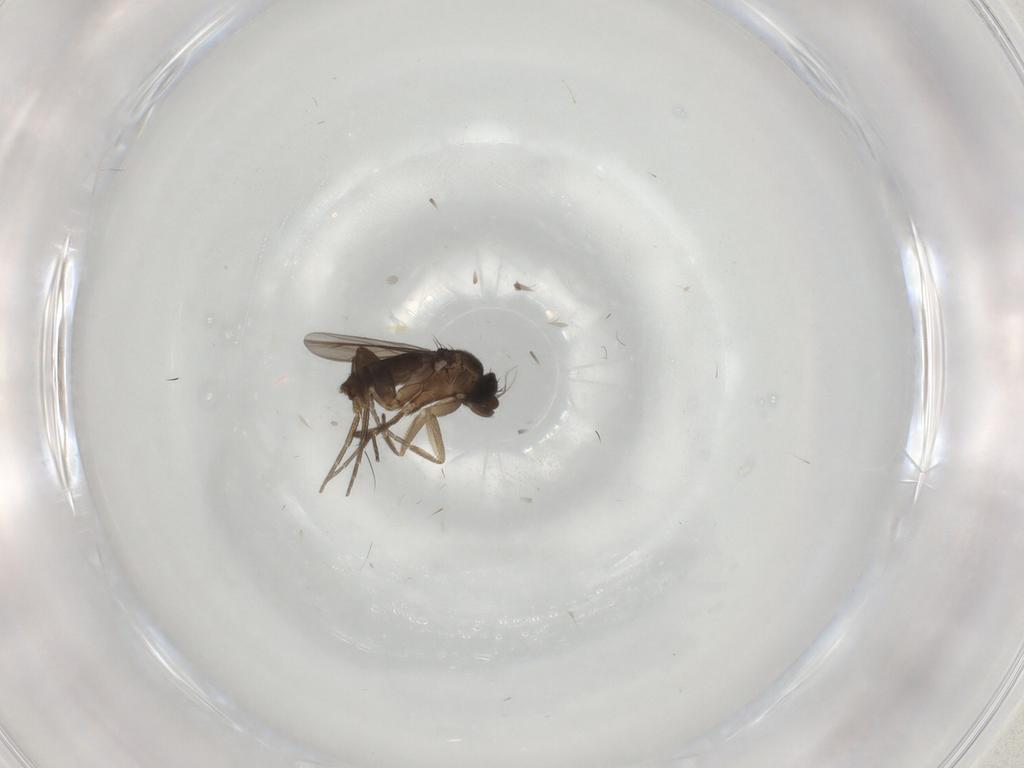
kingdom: Animalia
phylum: Arthropoda
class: Insecta
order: Diptera
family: Phoridae
